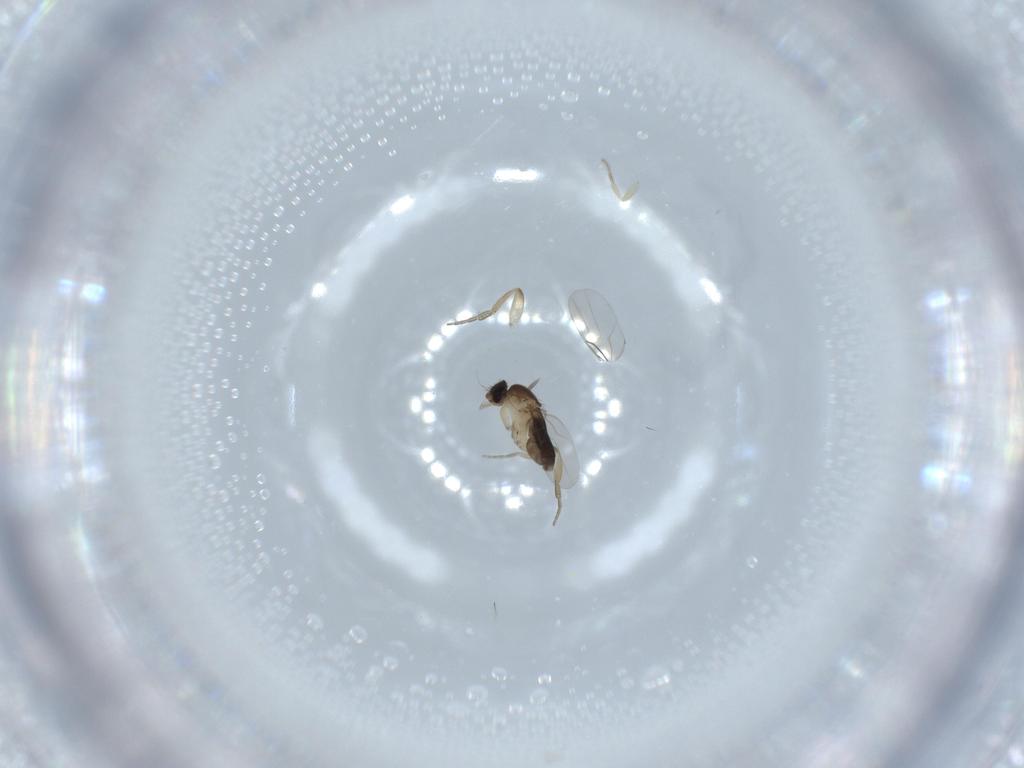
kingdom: Animalia
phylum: Arthropoda
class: Insecta
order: Diptera
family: Phoridae
